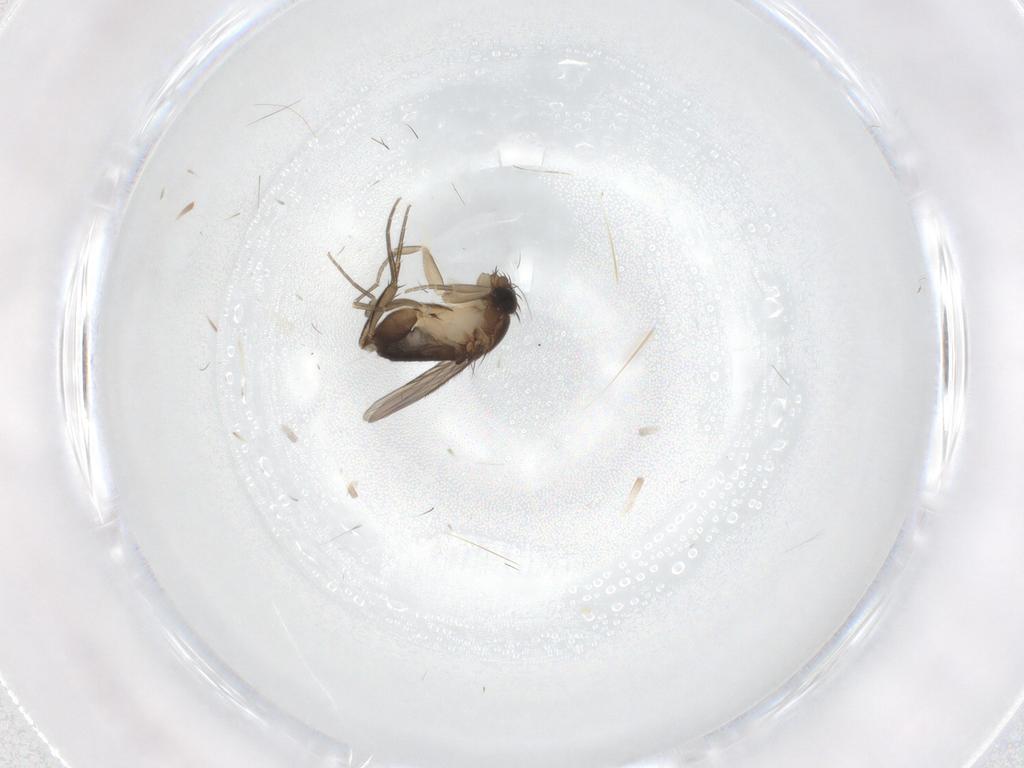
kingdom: Animalia
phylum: Arthropoda
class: Insecta
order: Diptera
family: Phoridae
